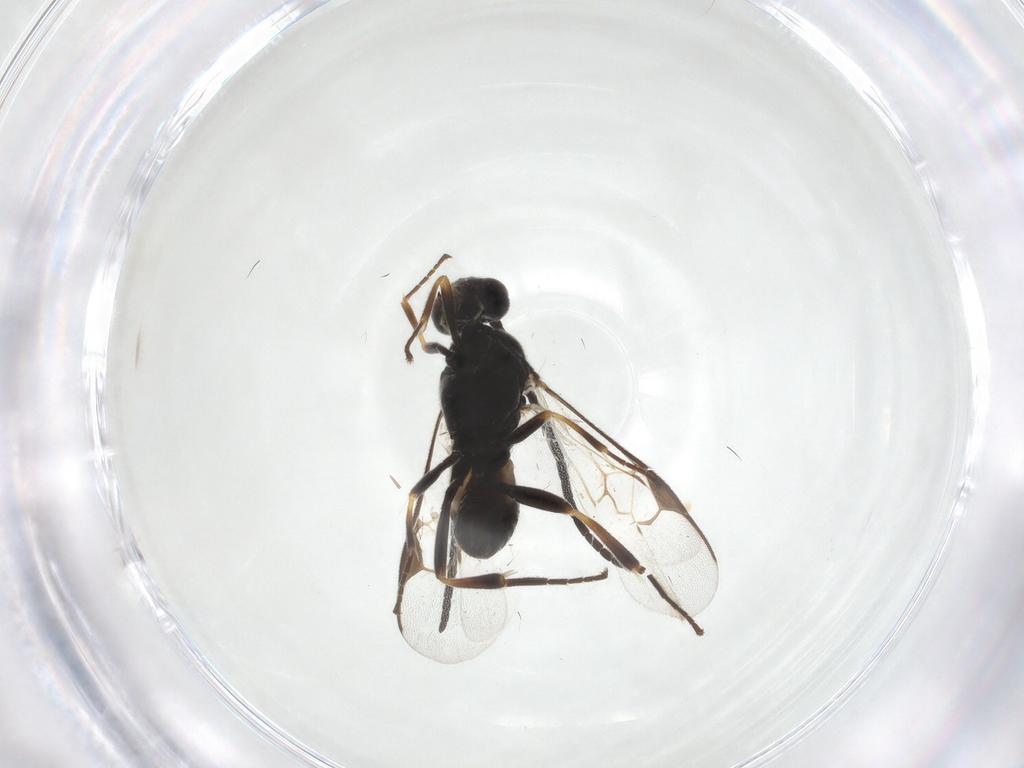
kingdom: Animalia
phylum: Arthropoda
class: Insecta
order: Hymenoptera
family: Braconidae
